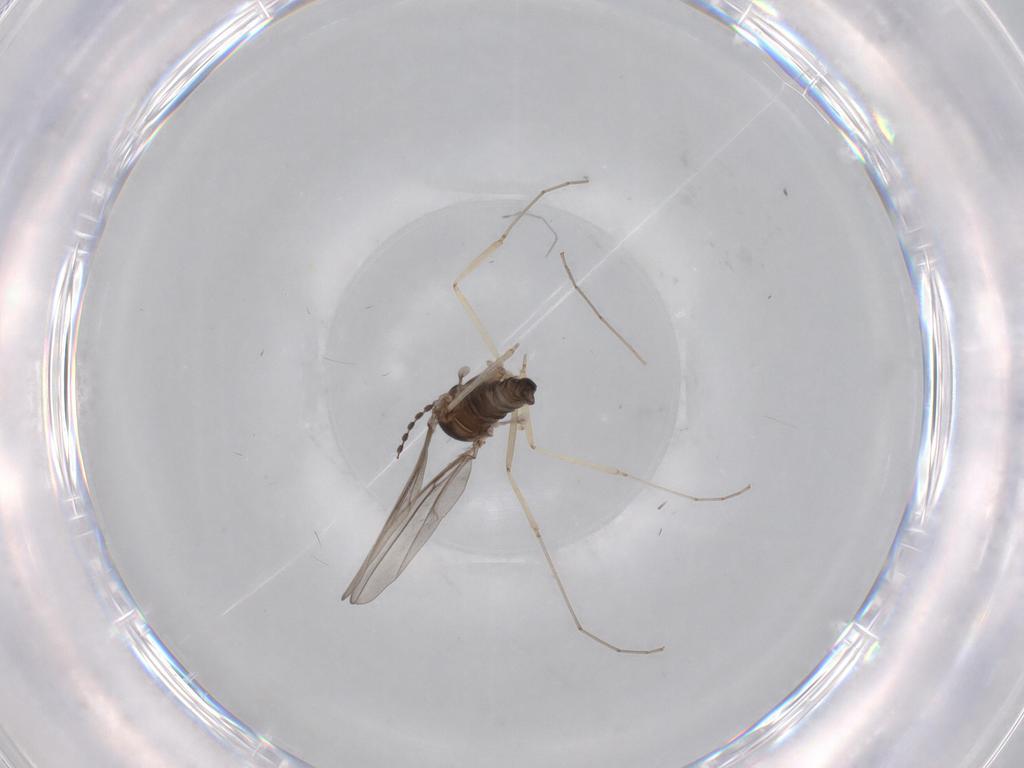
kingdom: Animalia
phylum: Arthropoda
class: Insecta
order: Diptera
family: Cecidomyiidae
